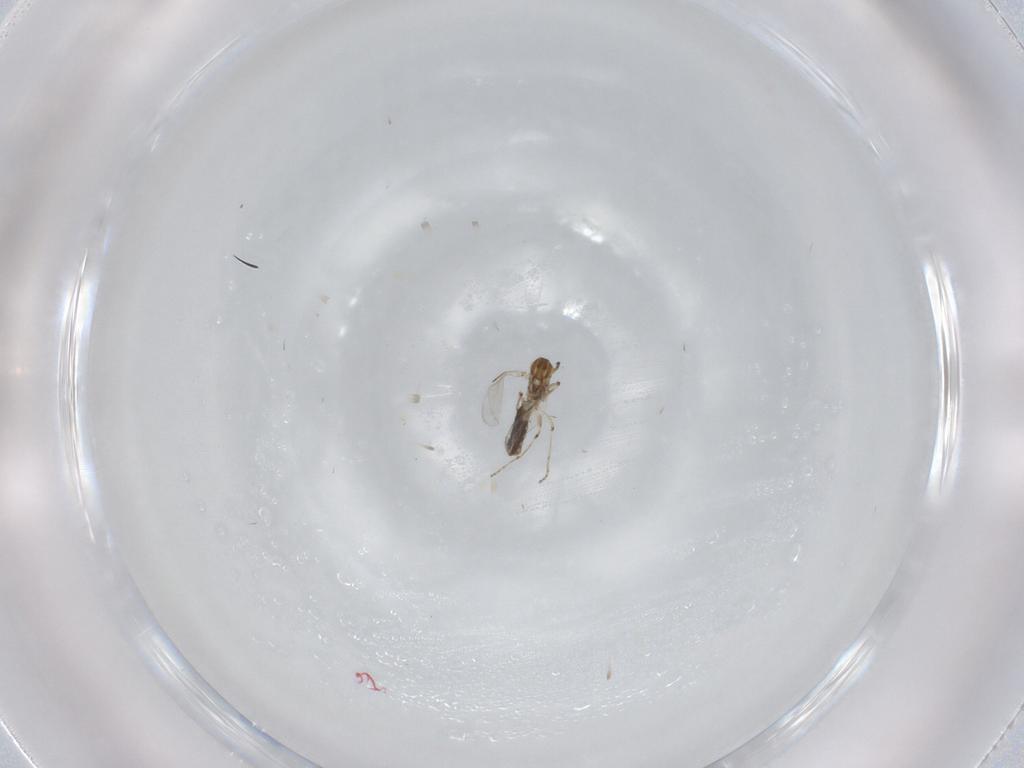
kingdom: Animalia
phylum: Arthropoda
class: Insecta
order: Diptera
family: Ceratopogonidae
